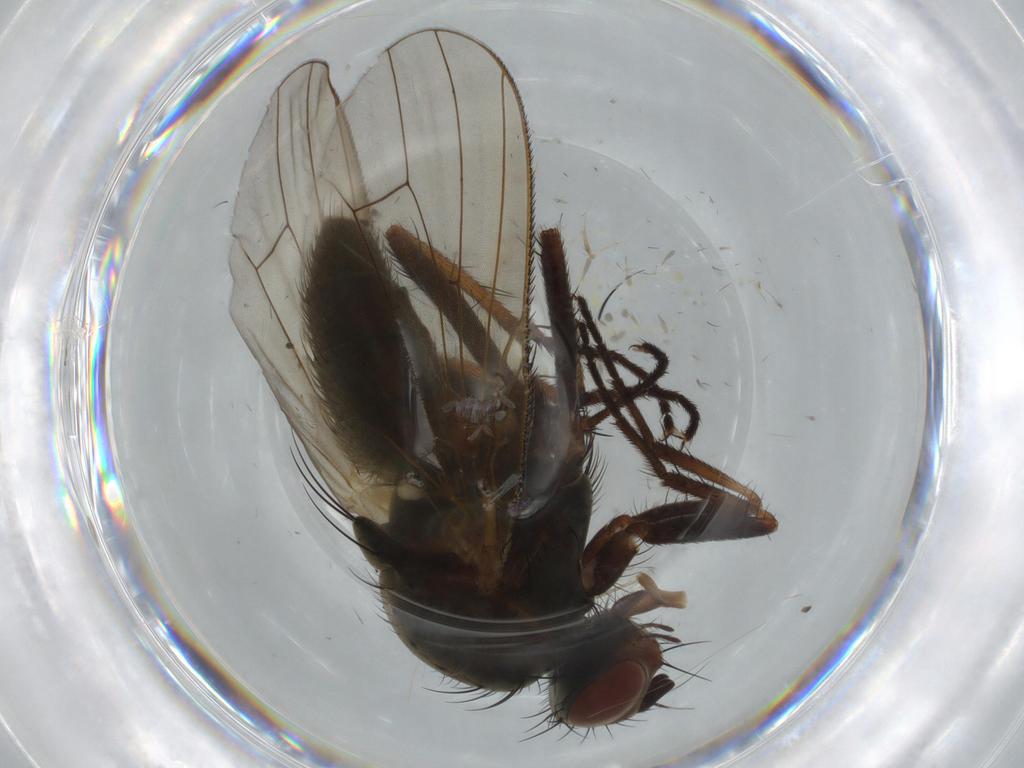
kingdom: Animalia
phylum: Arthropoda
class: Insecta
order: Diptera
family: Anthomyiidae
